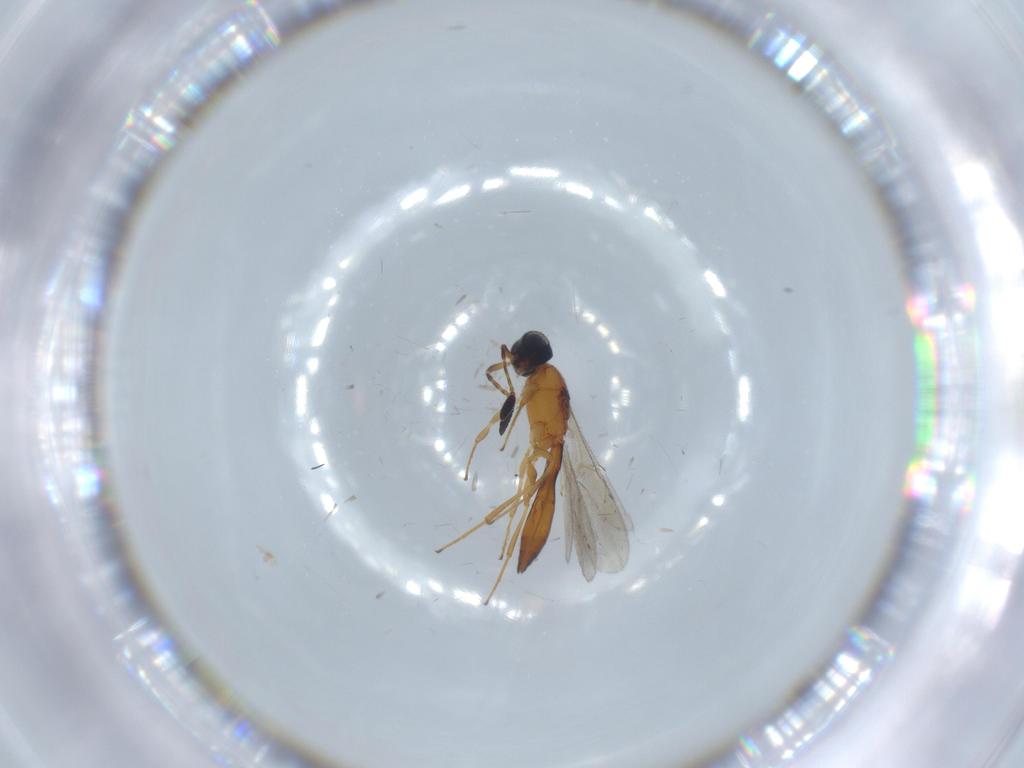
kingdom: Animalia
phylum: Arthropoda
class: Insecta
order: Hymenoptera
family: Scelionidae
